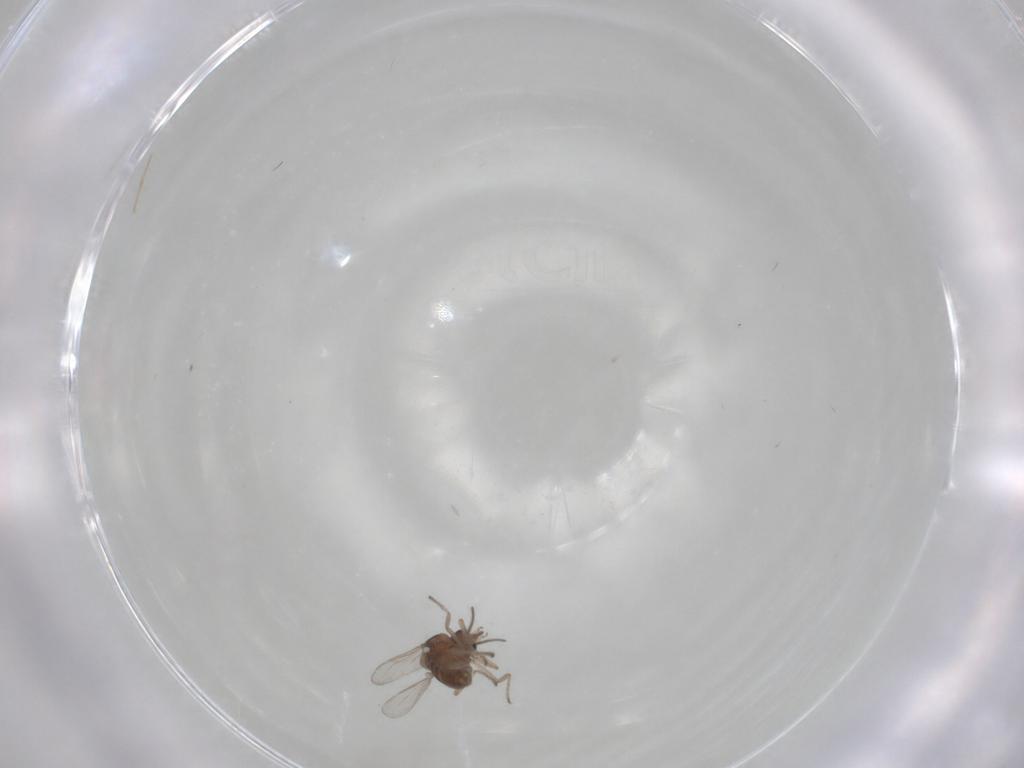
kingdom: Animalia
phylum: Arthropoda
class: Insecta
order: Diptera
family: Ceratopogonidae
